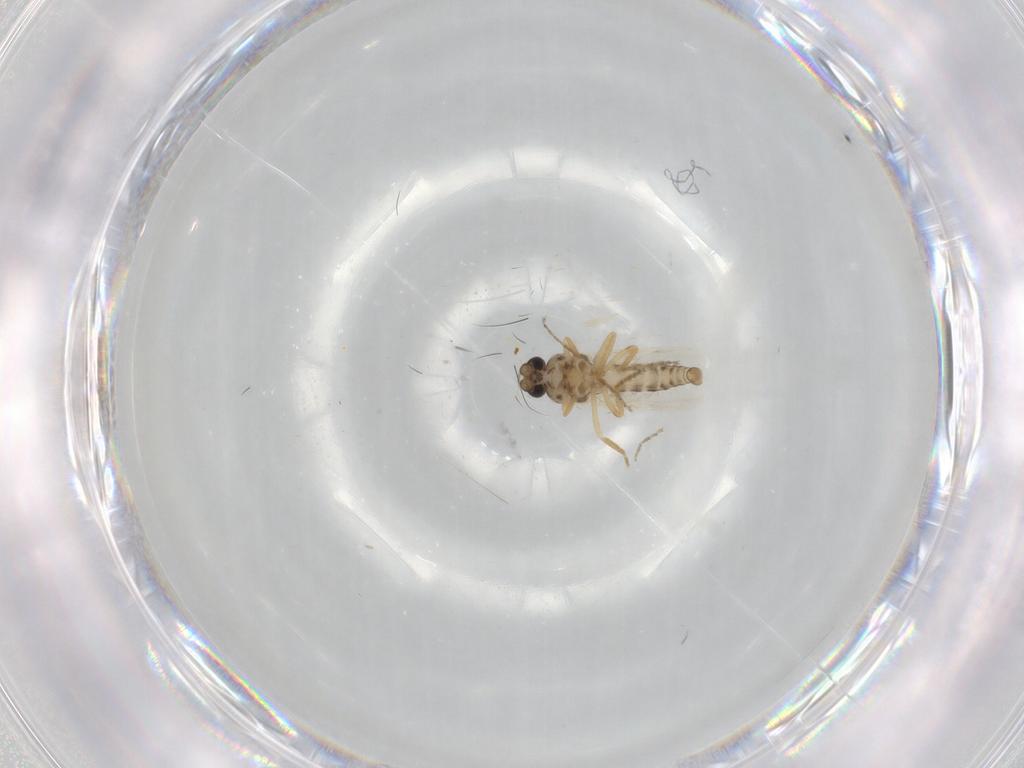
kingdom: Animalia
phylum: Arthropoda
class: Insecta
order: Diptera
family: Ceratopogonidae
